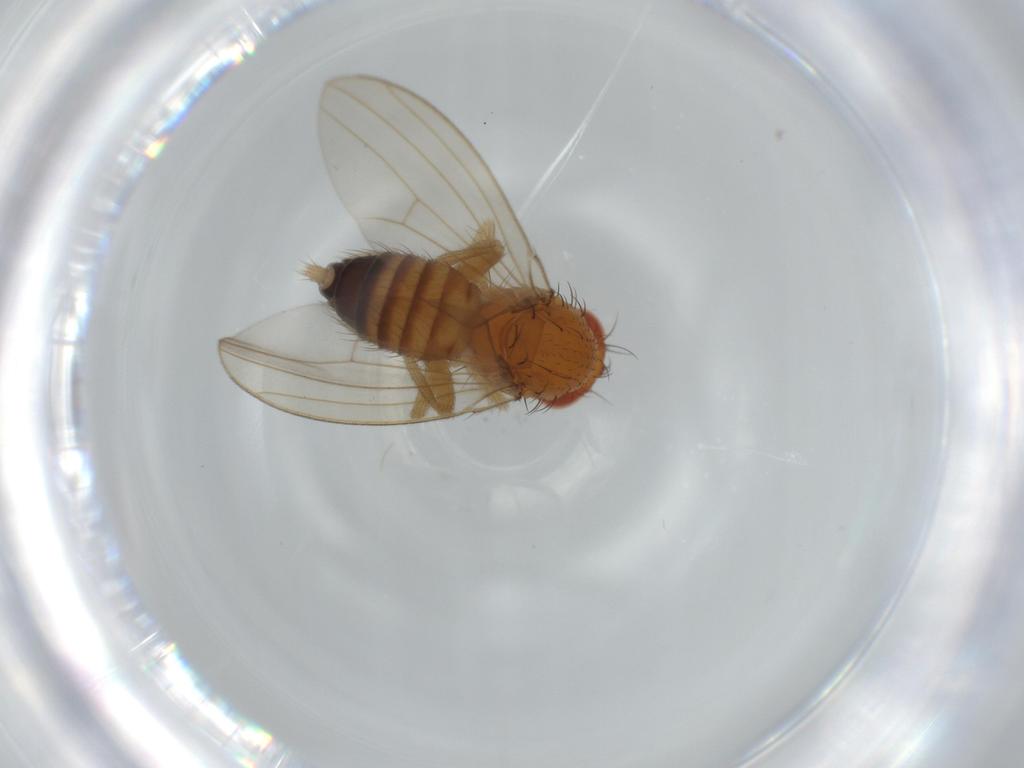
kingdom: Animalia
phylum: Arthropoda
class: Insecta
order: Diptera
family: Drosophilidae
